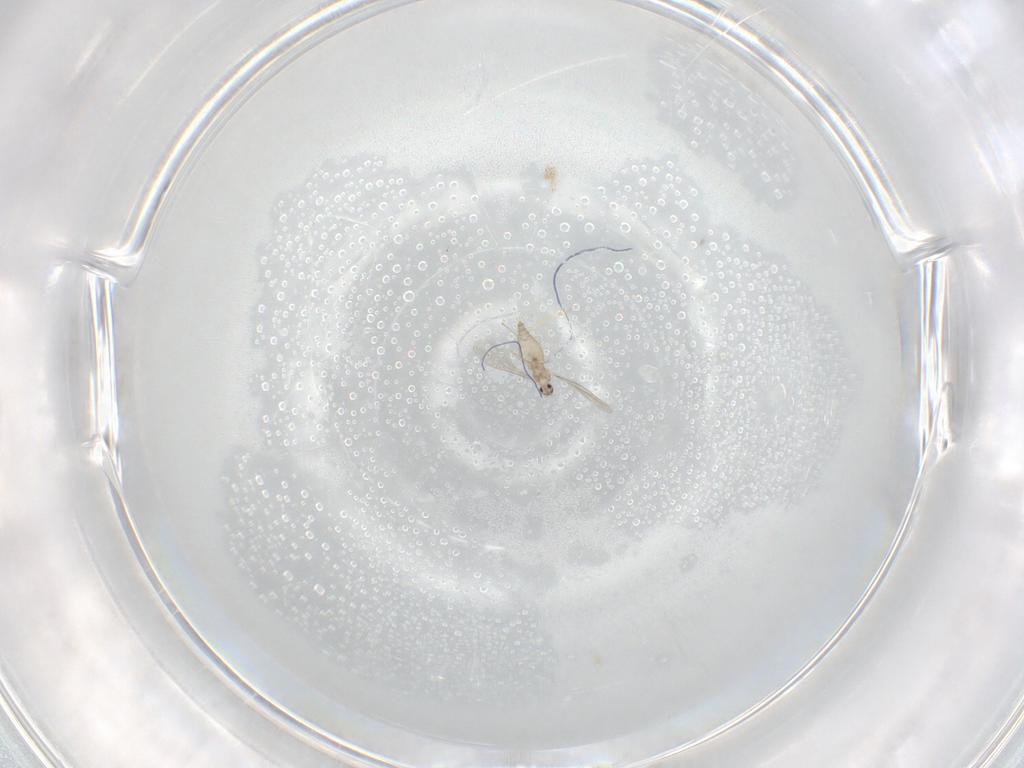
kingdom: Animalia
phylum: Arthropoda
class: Insecta
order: Diptera
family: Cecidomyiidae
